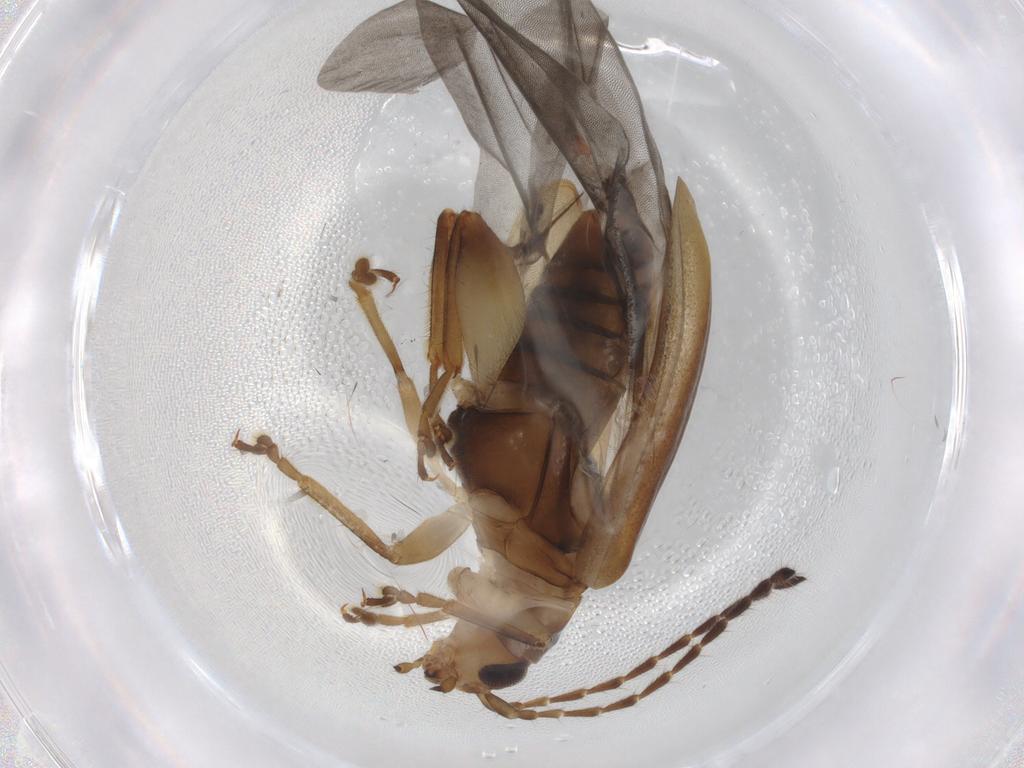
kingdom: Animalia
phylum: Arthropoda
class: Insecta
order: Coleoptera
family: Chrysomelidae
